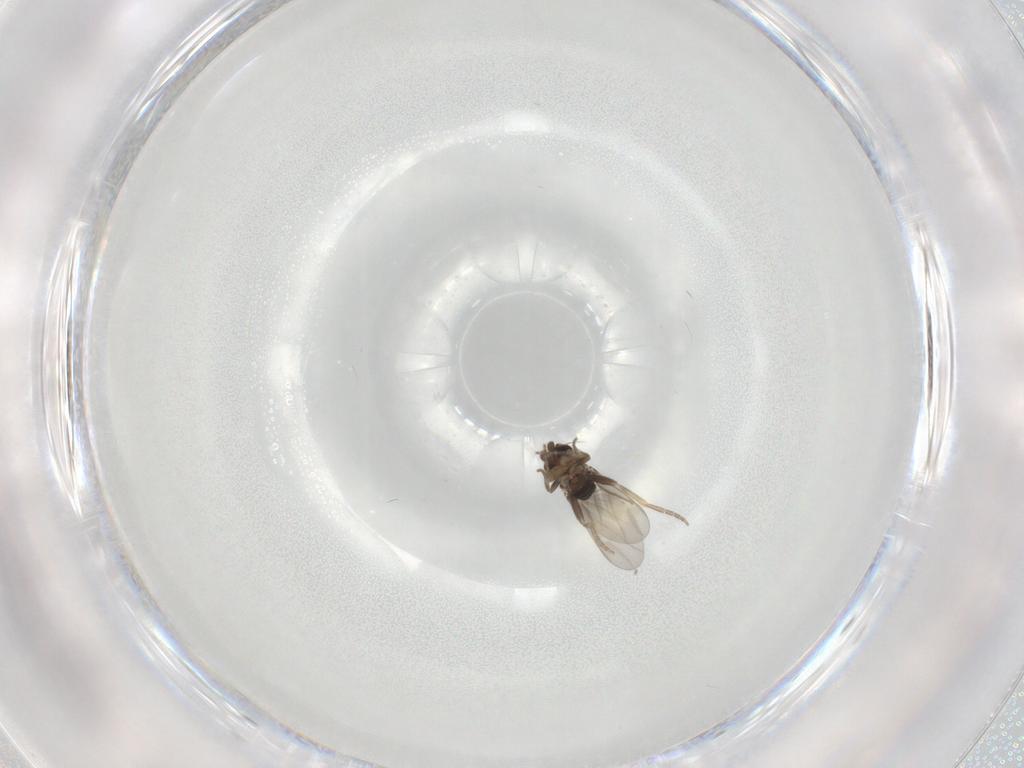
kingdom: Animalia
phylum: Arthropoda
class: Insecta
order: Diptera
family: Dolichopodidae
